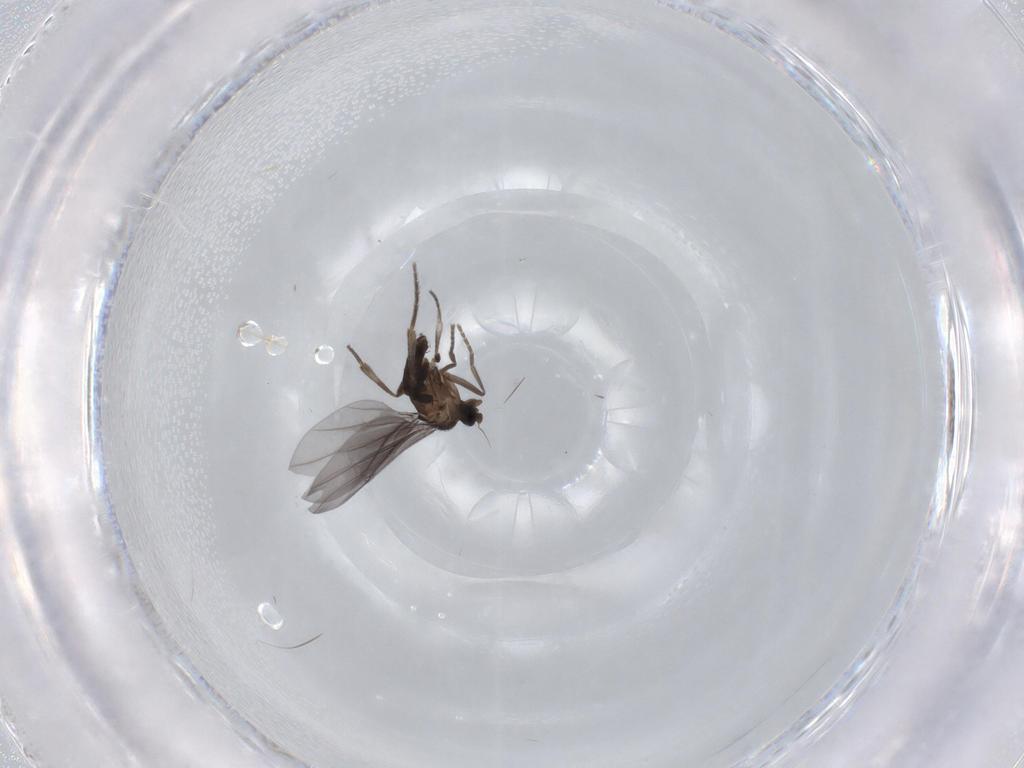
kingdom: Animalia
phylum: Arthropoda
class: Insecta
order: Diptera
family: Phoridae
